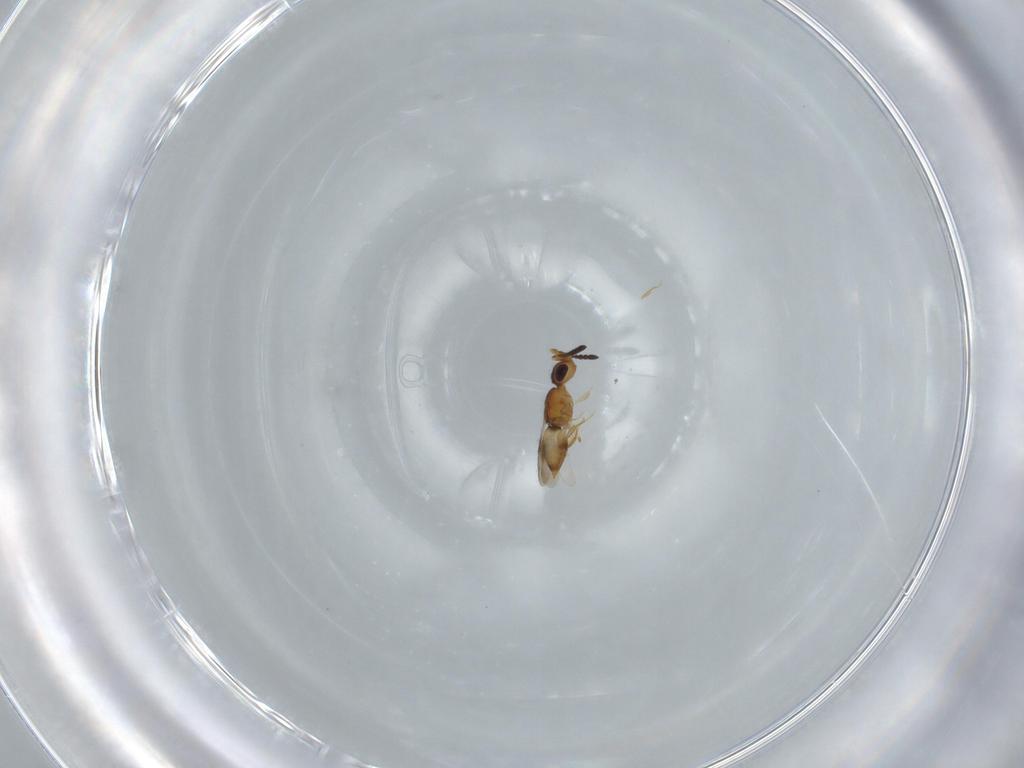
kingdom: Animalia
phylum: Arthropoda
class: Insecta
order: Hymenoptera
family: Ceraphronidae
